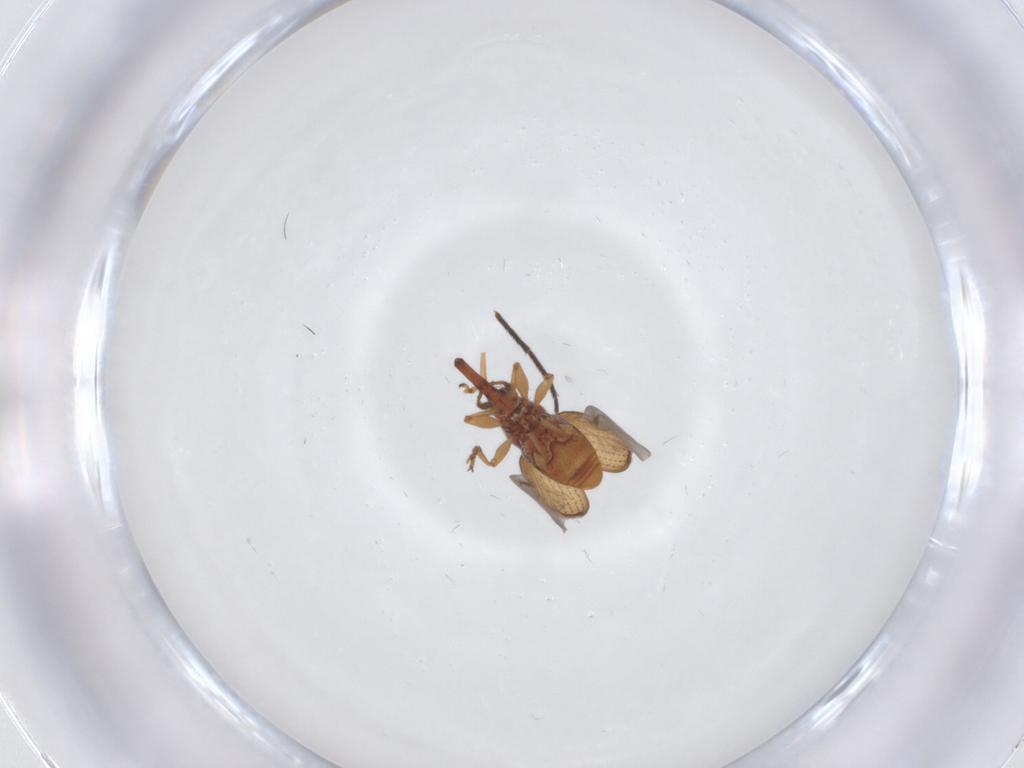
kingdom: Animalia
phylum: Arthropoda
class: Insecta
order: Coleoptera
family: Brentidae
